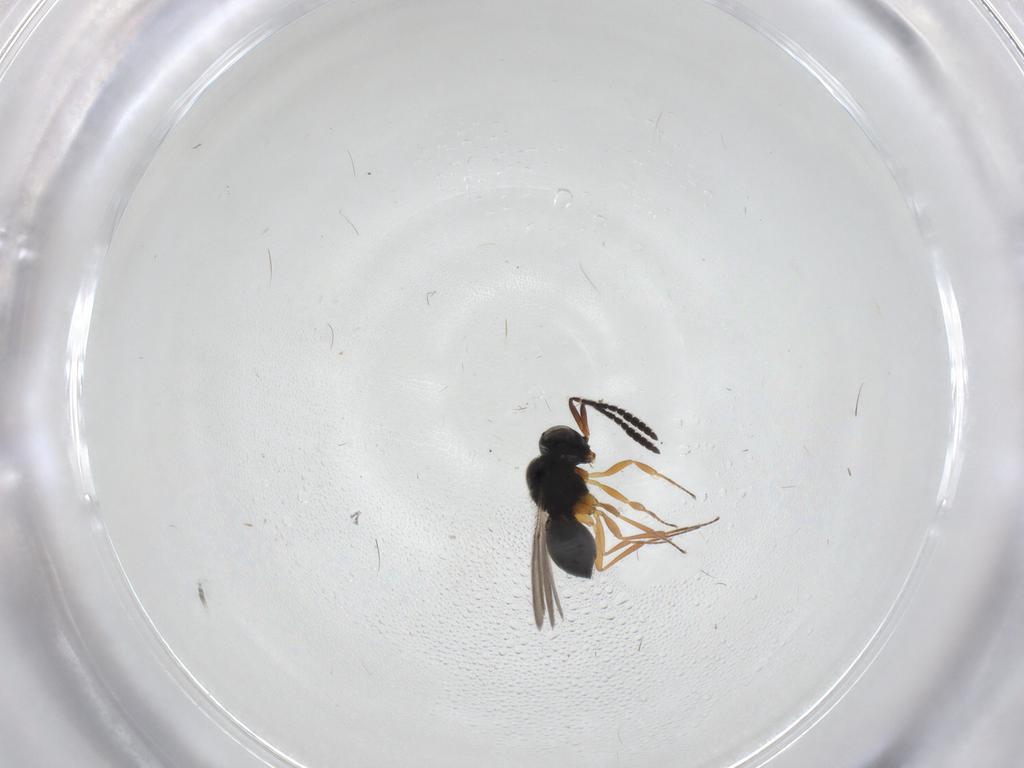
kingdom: Animalia
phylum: Arthropoda
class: Insecta
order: Hymenoptera
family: Scelionidae
